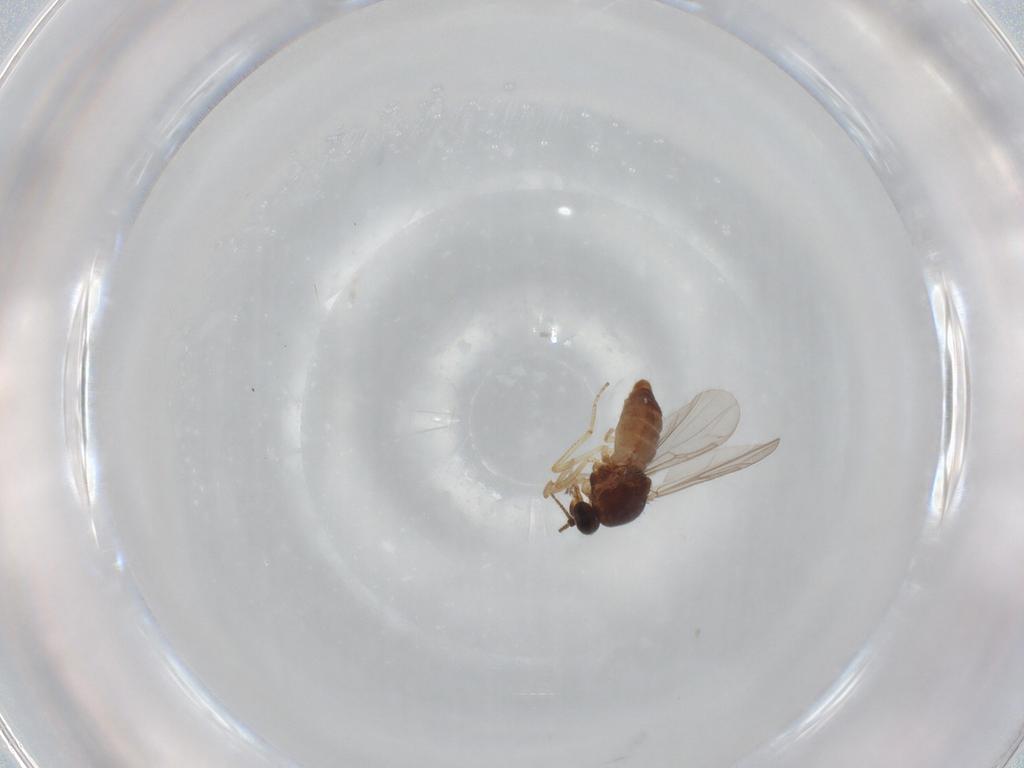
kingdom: Animalia
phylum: Arthropoda
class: Insecta
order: Diptera
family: Ceratopogonidae
